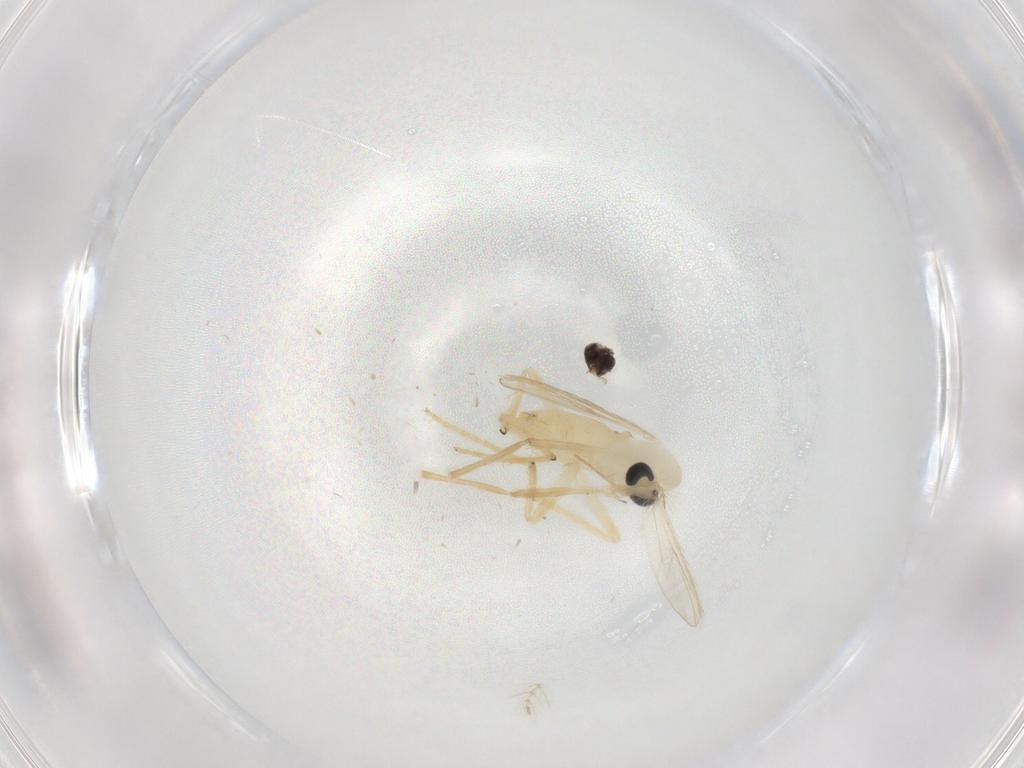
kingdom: Animalia
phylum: Arthropoda
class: Insecta
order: Diptera
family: Chironomidae
